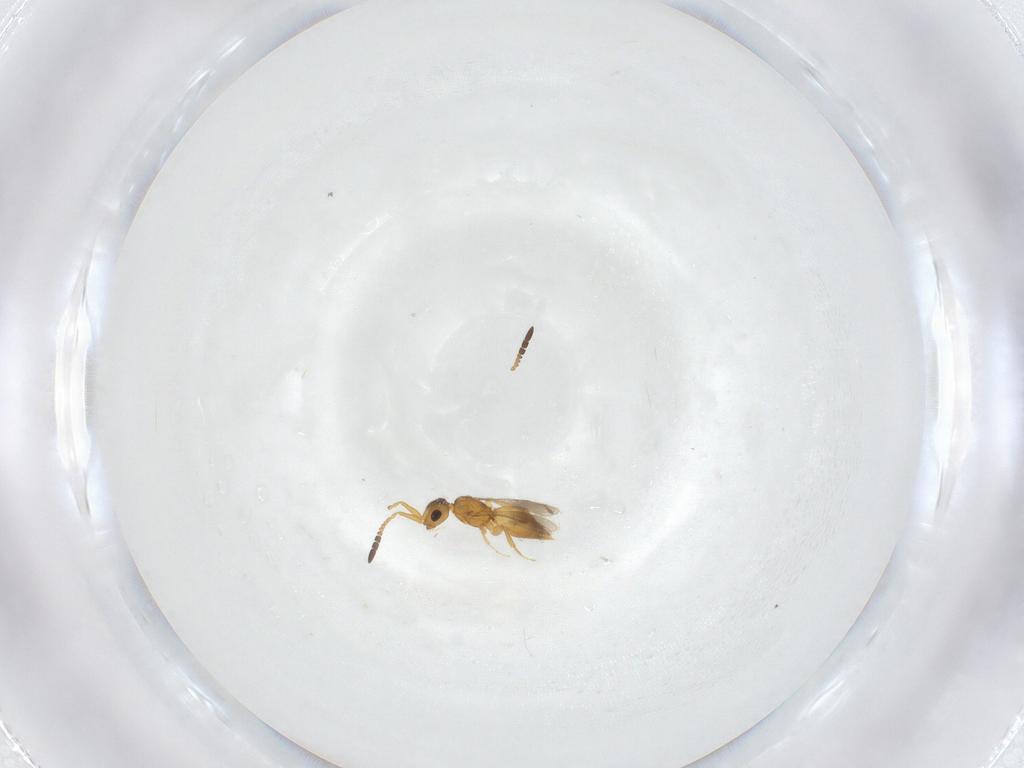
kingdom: Animalia
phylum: Arthropoda
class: Insecta
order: Hymenoptera
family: Ceraphronidae
